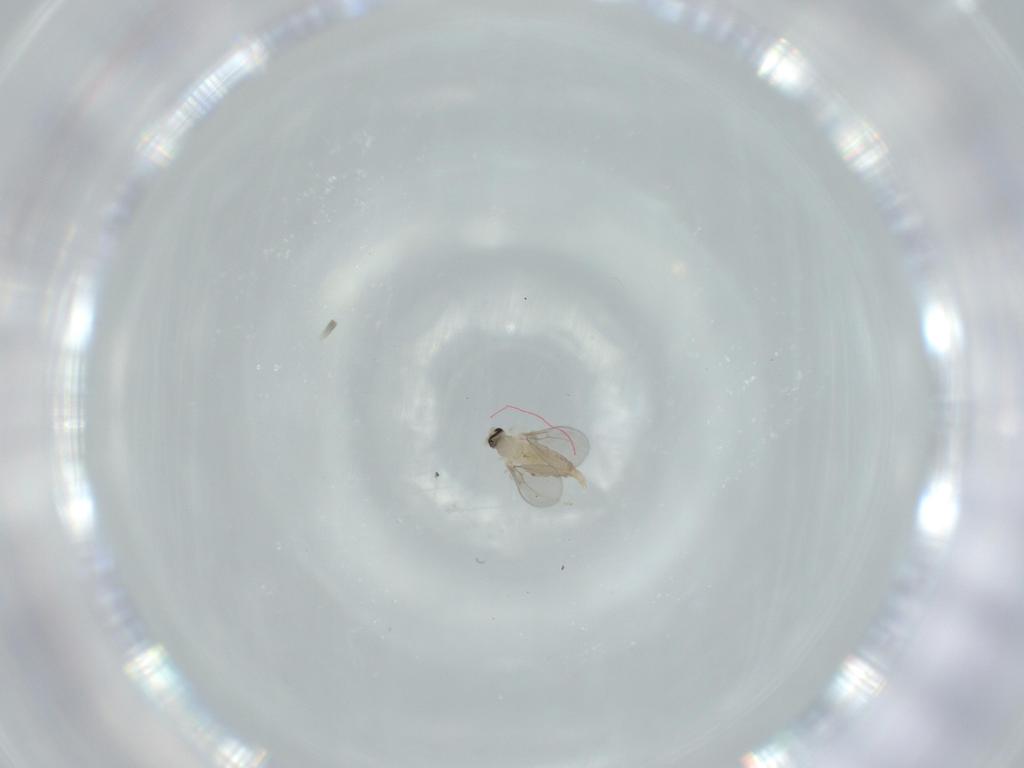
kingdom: Animalia
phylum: Arthropoda
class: Insecta
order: Diptera
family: Cecidomyiidae
